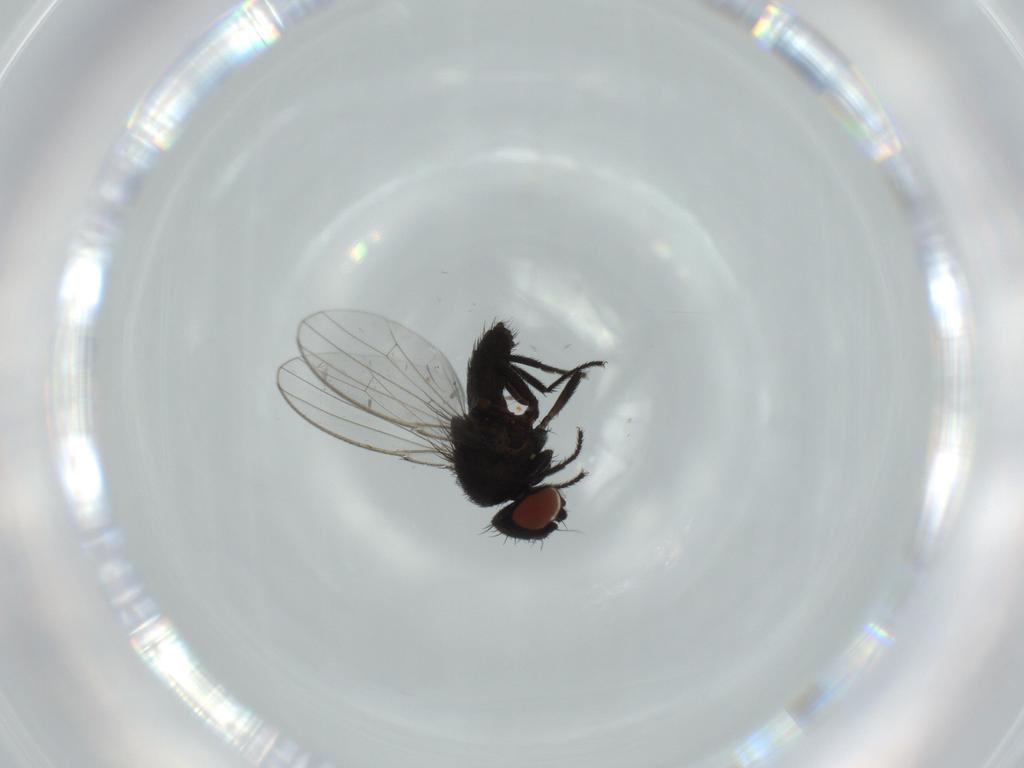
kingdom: Animalia
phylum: Arthropoda
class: Insecta
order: Diptera
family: Milichiidae
